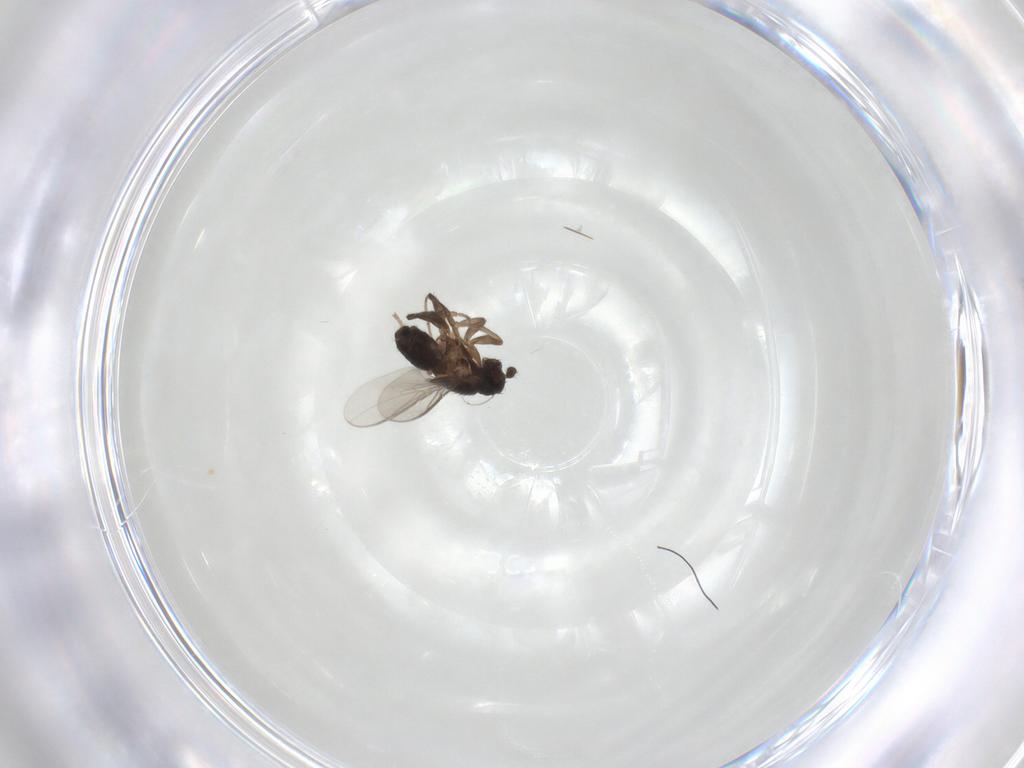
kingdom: Animalia
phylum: Arthropoda
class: Insecta
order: Diptera
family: Sphaeroceridae
